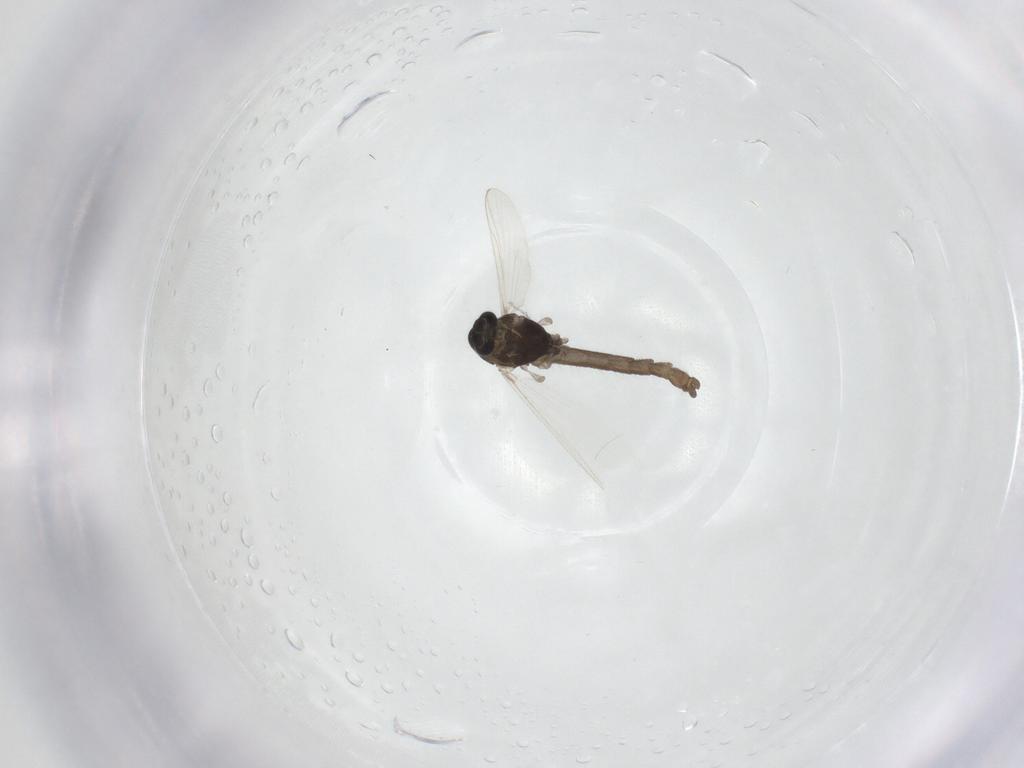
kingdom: Animalia
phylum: Arthropoda
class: Insecta
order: Diptera
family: Chironomidae
